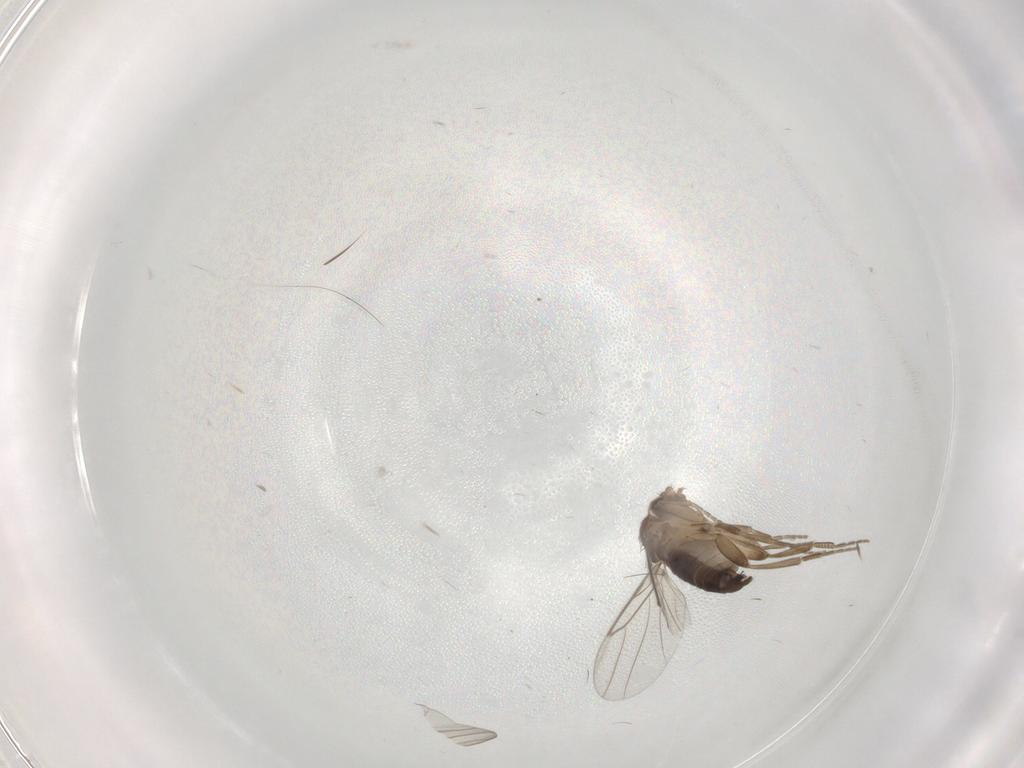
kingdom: Animalia
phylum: Arthropoda
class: Insecta
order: Diptera
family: Phoridae
